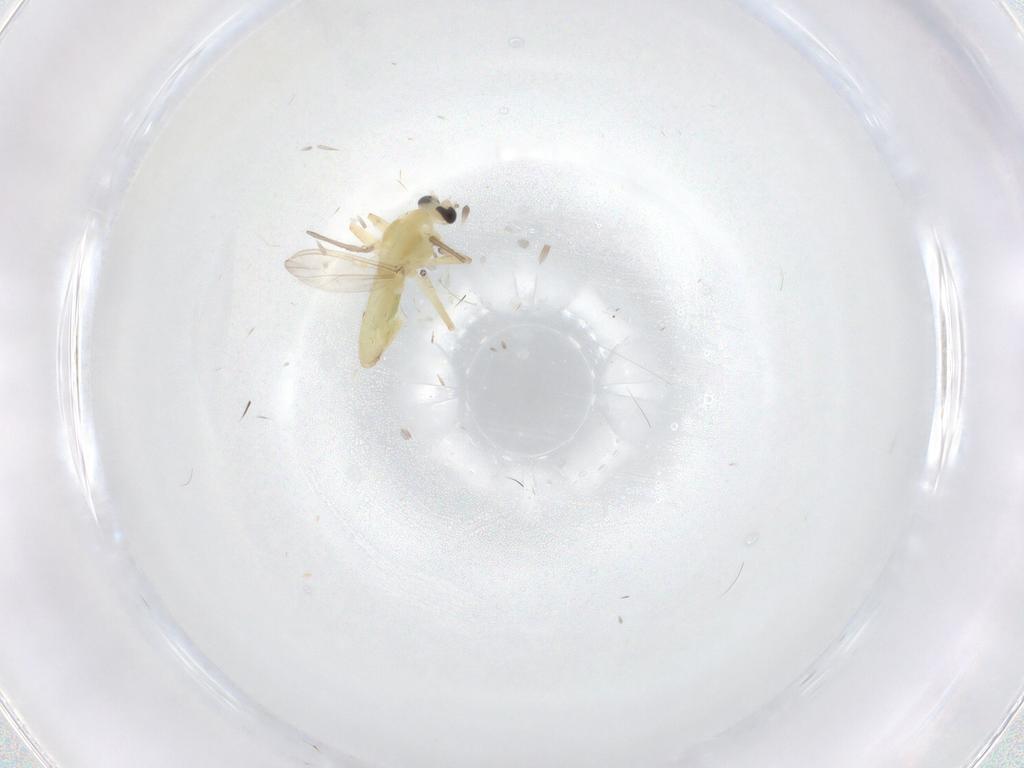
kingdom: Animalia
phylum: Arthropoda
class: Insecta
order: Diptera
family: Chironomidae
